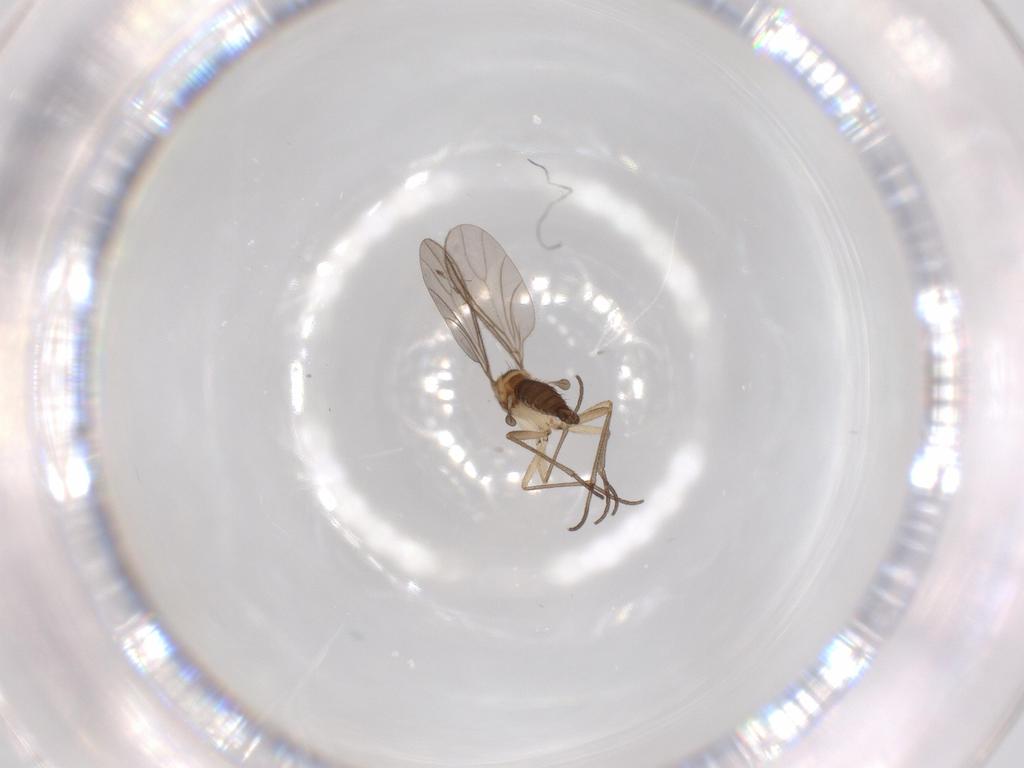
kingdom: Animalia
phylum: Arthropoda
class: Insecta
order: Diptera
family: Sciaridae
